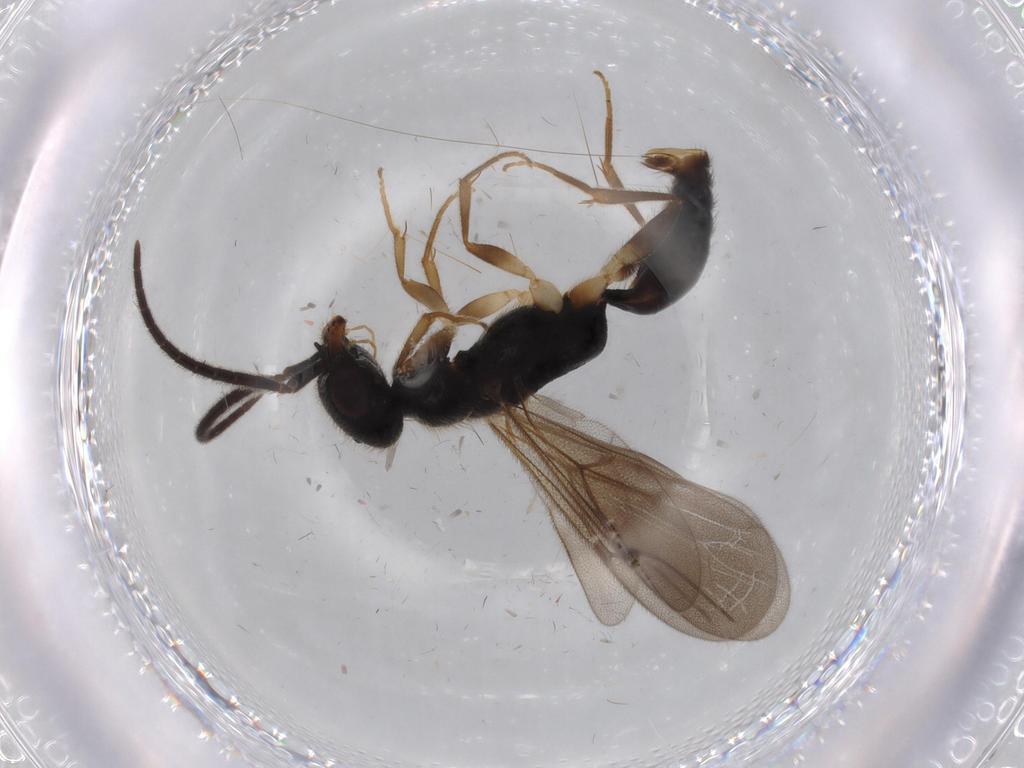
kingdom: Animalia
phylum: Arthropoda
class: Insecta
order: Hymenoptera
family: Bethylidae
